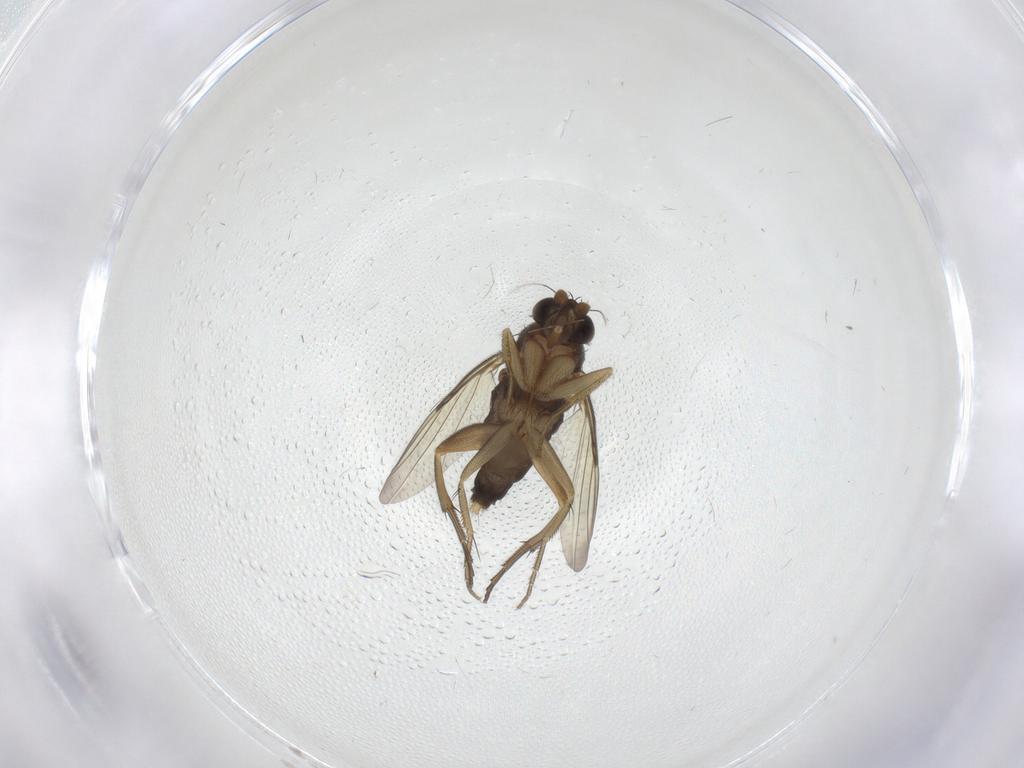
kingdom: Animalia
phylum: Arthropoda
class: Insecta
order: Diptera
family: Phoridae
